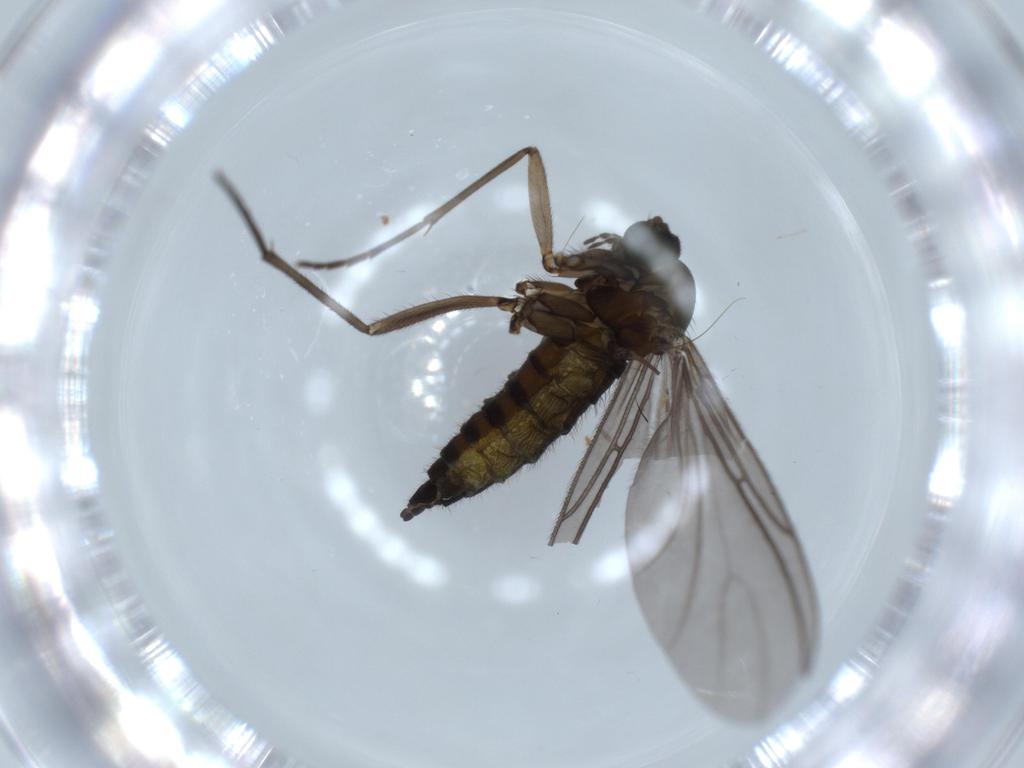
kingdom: Animalia
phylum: Arthropoda
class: Insecta
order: Diptera
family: Sciaridae
